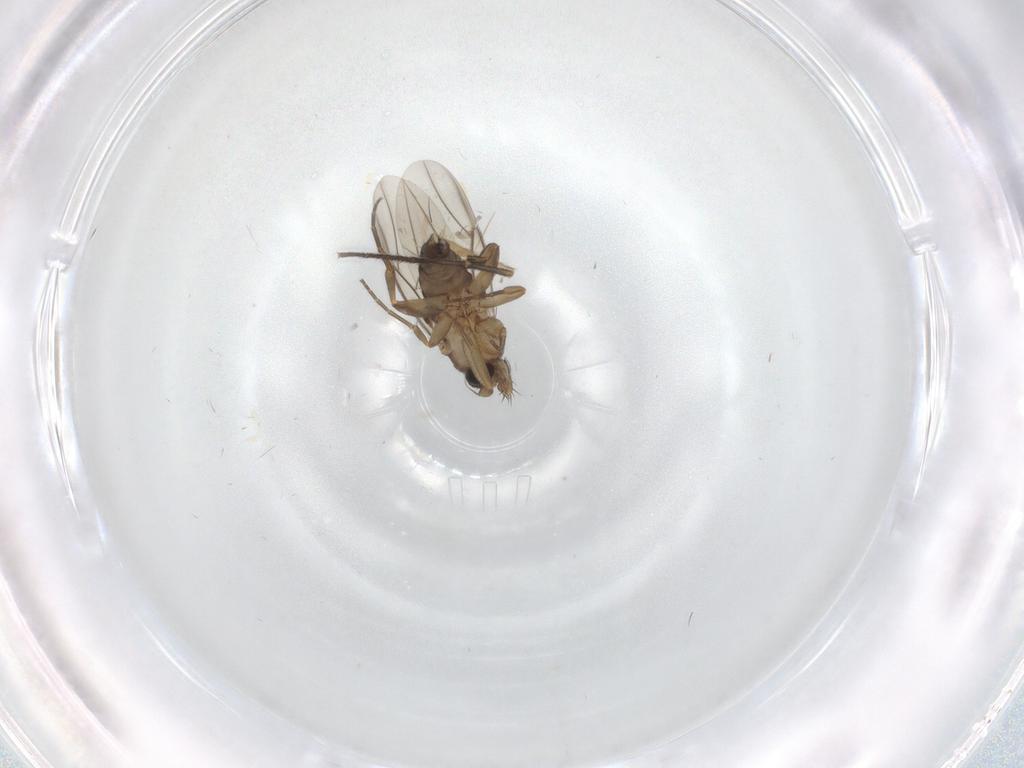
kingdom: Animalia
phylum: Arthropoda
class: Insecta
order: Diptera
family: Phoridae
